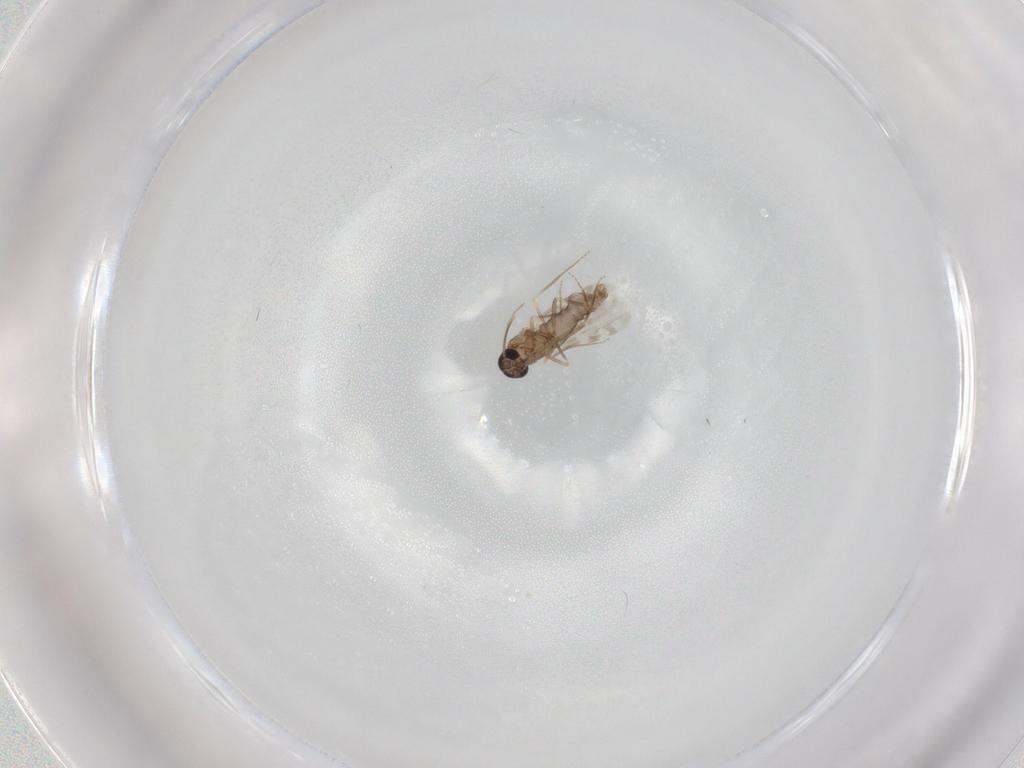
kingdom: Animalia
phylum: Arthropoda
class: Insecta
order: Diptera
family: Ceratopogonidae
